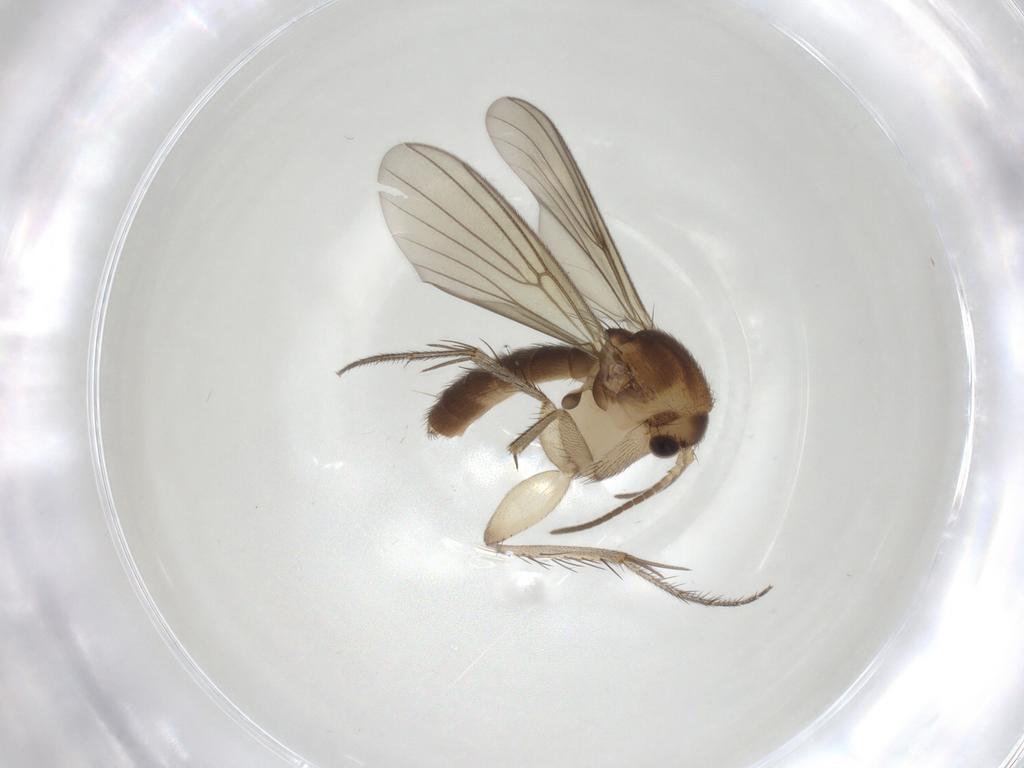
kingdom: Animalia
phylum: Arthropoda
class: Insecta
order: Diptera
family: Mycetophilidae
